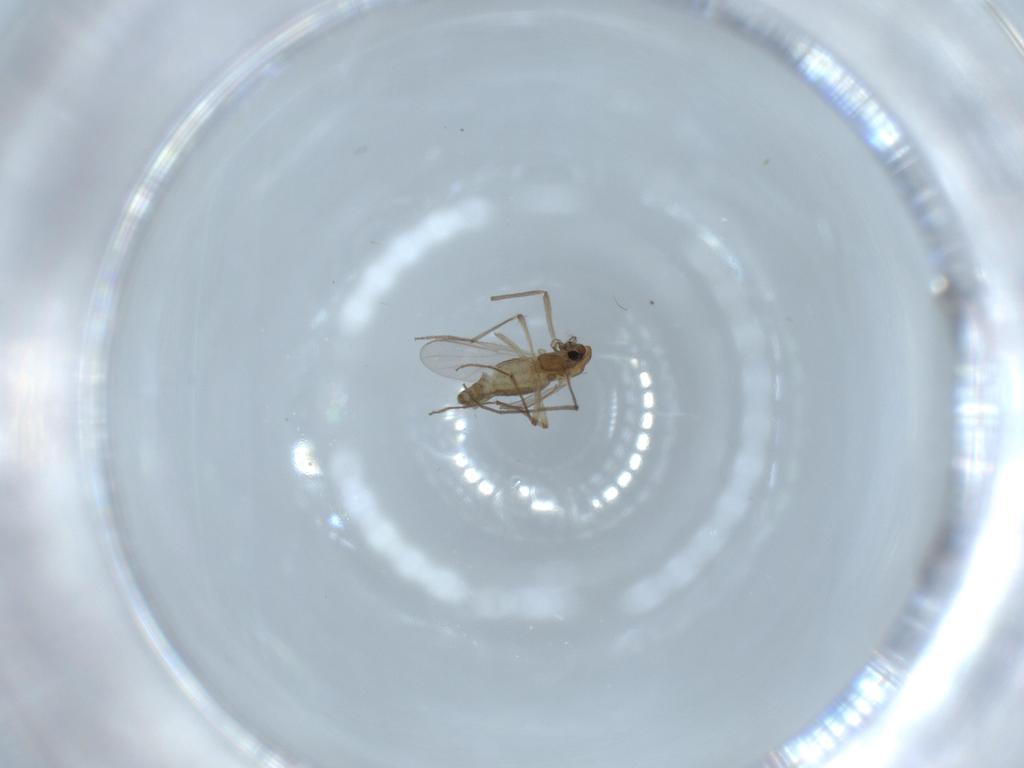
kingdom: Animalia
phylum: Arthropoda
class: Insecta
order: Diptera
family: Chironomidae
